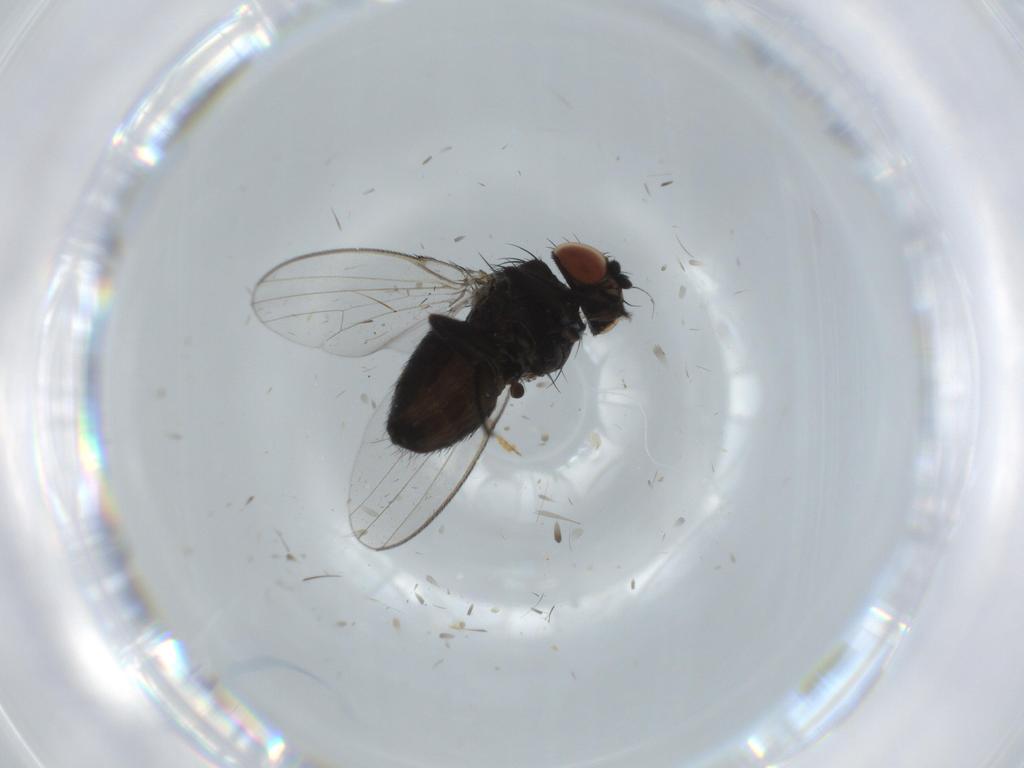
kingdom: Animalia
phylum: Arthropoda
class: Insecta
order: Diptera
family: Milichiidae
